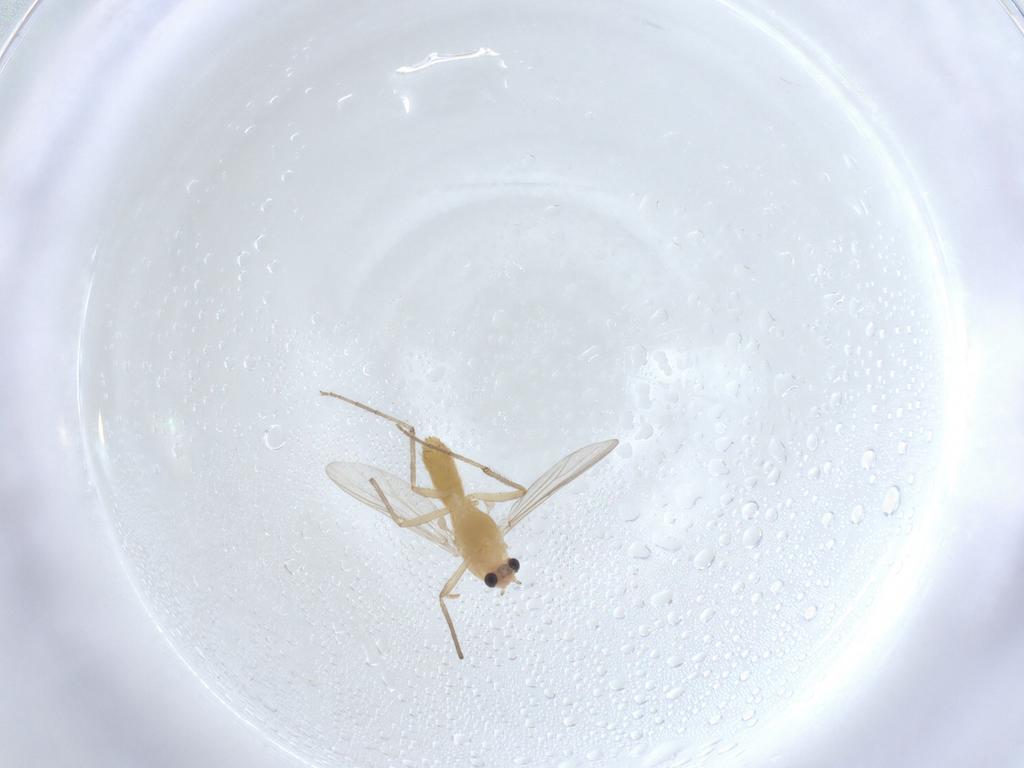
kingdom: Animalia
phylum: Arthropoda
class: Insecta
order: Diptera
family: Chironomidae
